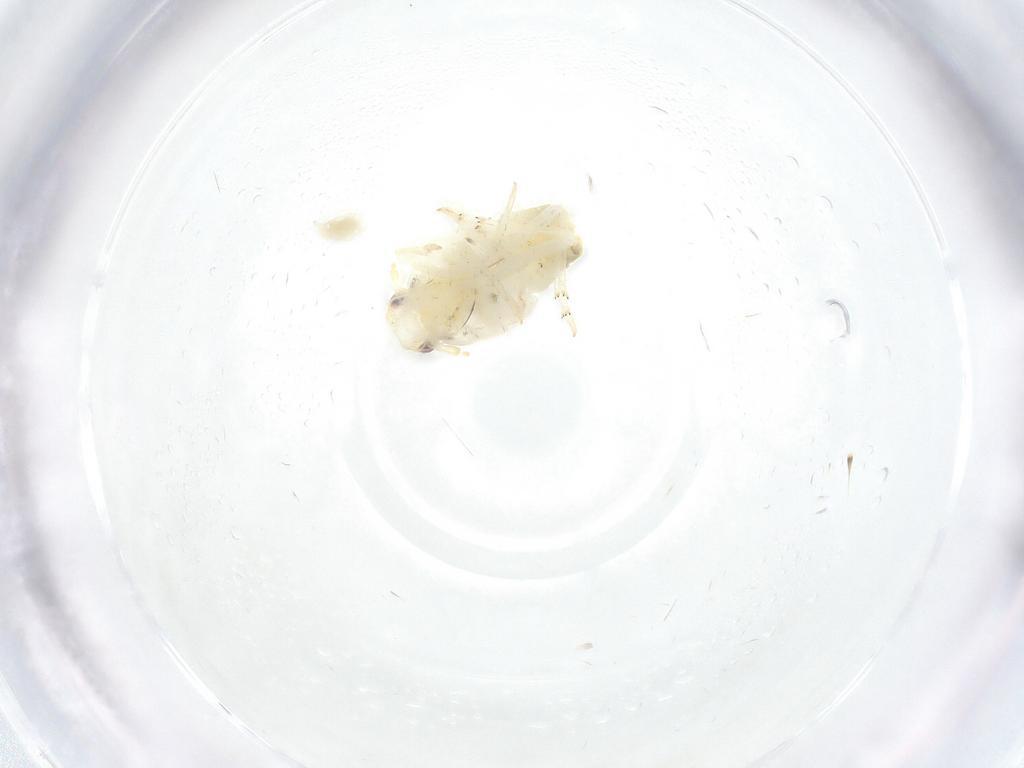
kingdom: Animalia
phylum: Arthropoda
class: Insecta
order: Hemiptera
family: Flatidae
